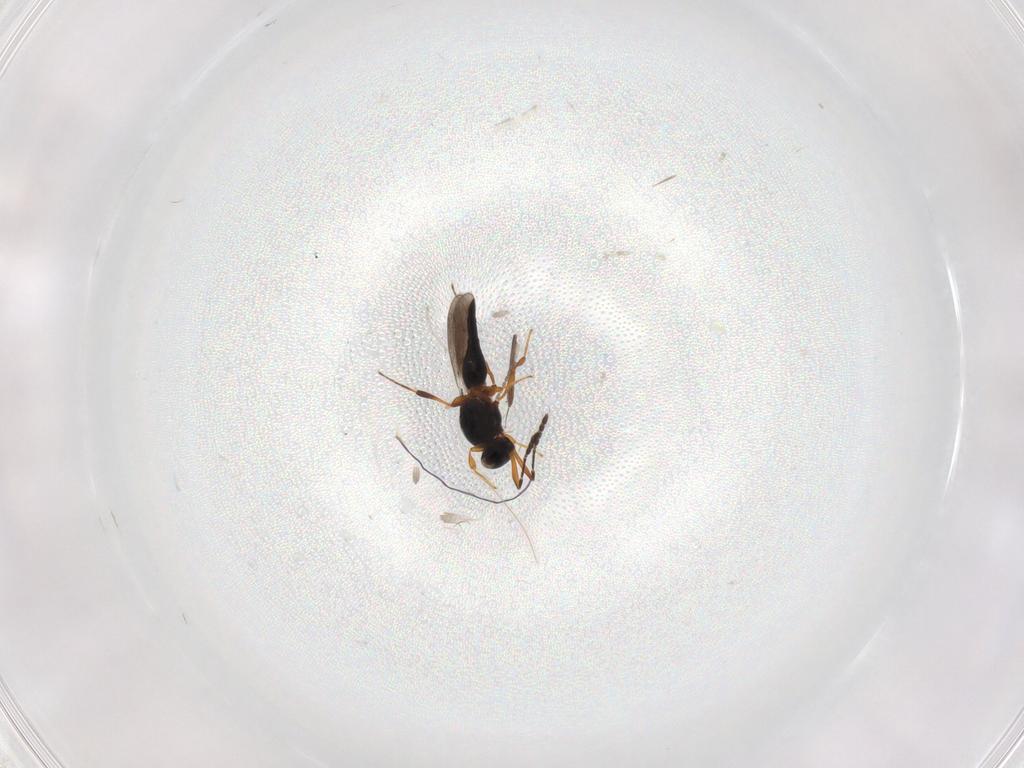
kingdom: Animalia
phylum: Arthropoda
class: Insecta
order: Hymenoptera
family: Platygastridae
